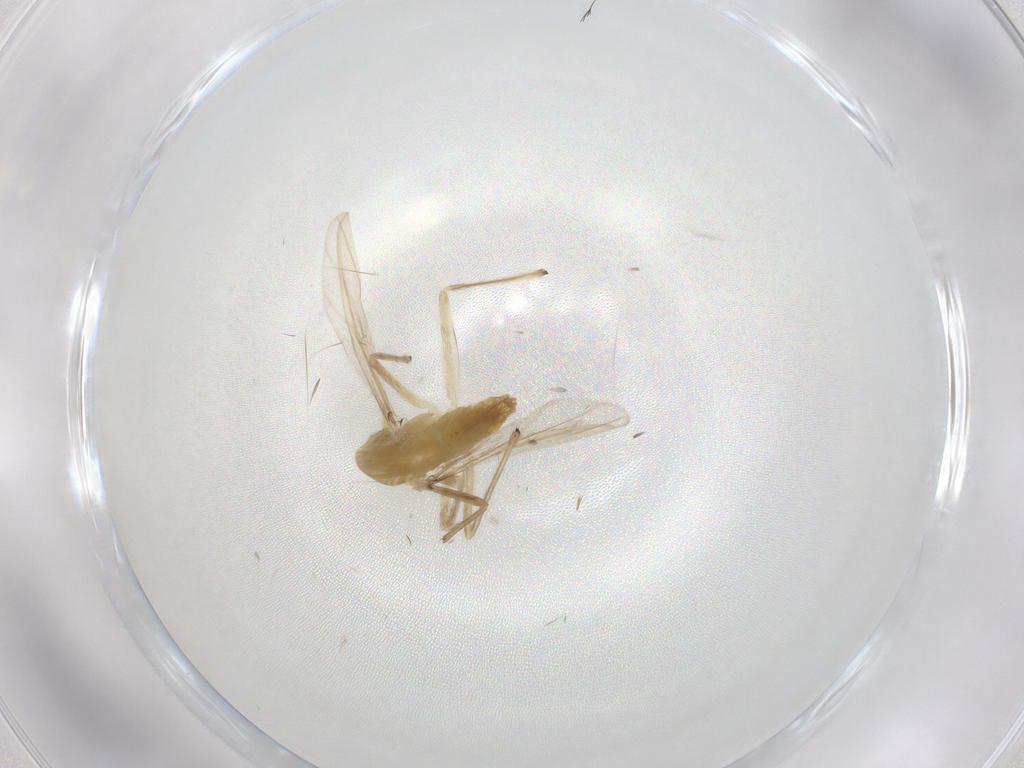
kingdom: Animalia
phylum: Arthropoda
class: Insecta
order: Diptera
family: Chironomidae
